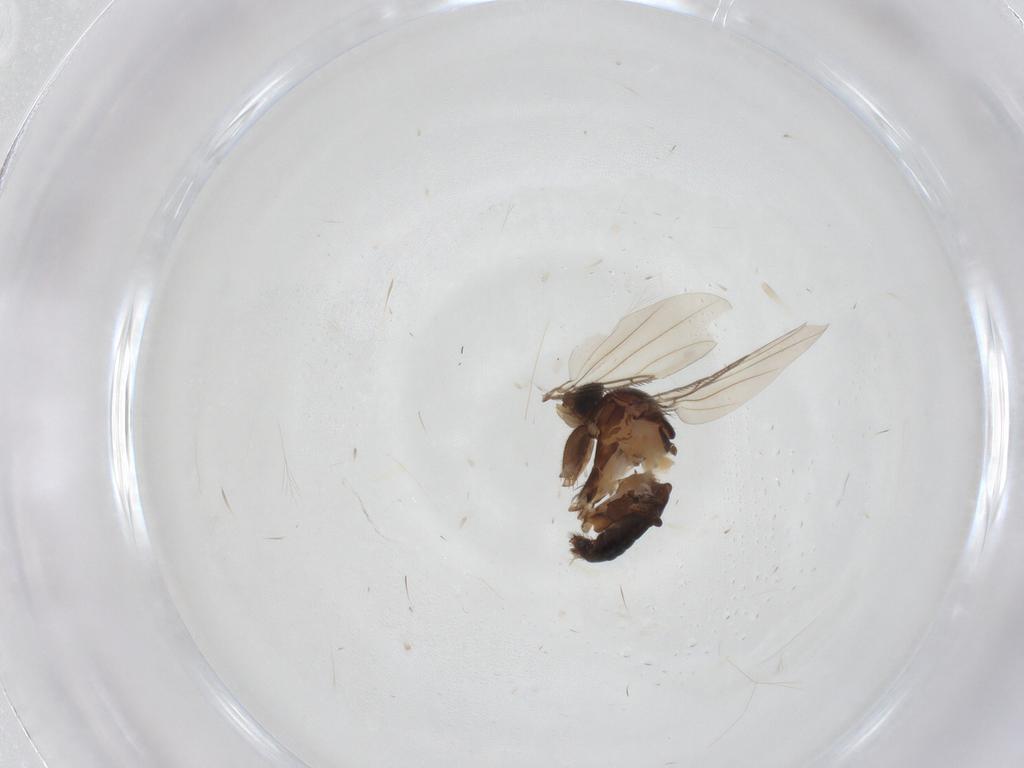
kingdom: Animalia
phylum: Arthropoda
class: Insecta
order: Diptera
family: Phoridae
